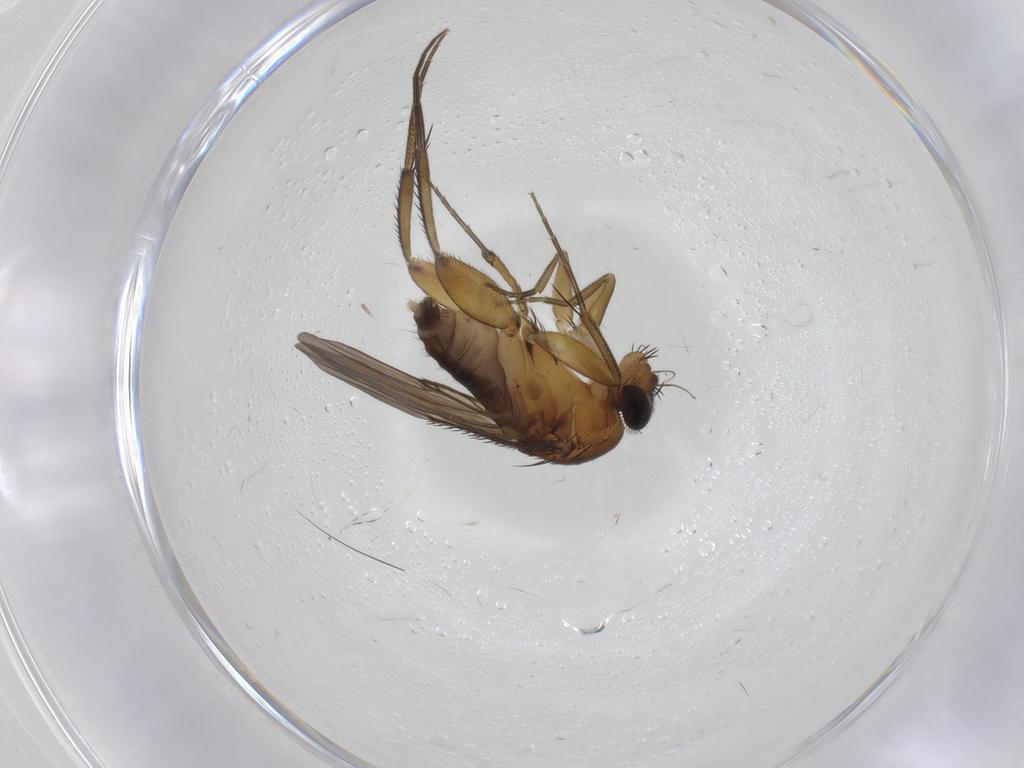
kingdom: Animalia
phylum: Arthropoda
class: Insecta
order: Diptera
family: Phoridae
